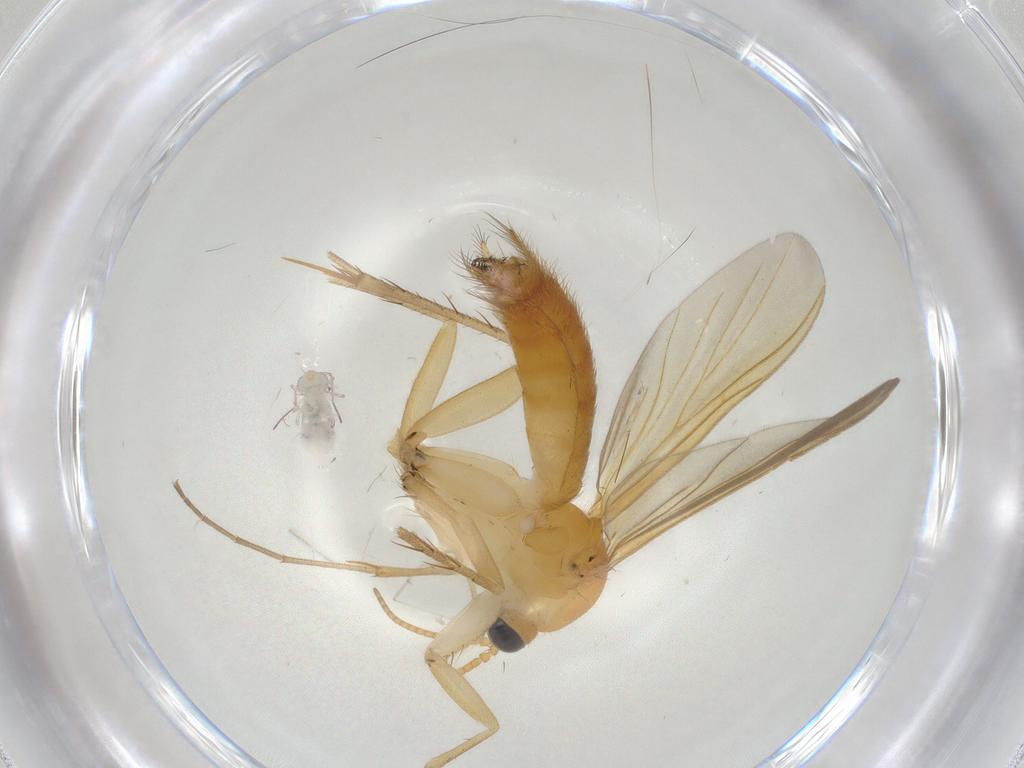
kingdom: Animalia
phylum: Arthropoda
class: Insecta
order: Diptera
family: Mycetophilidae
